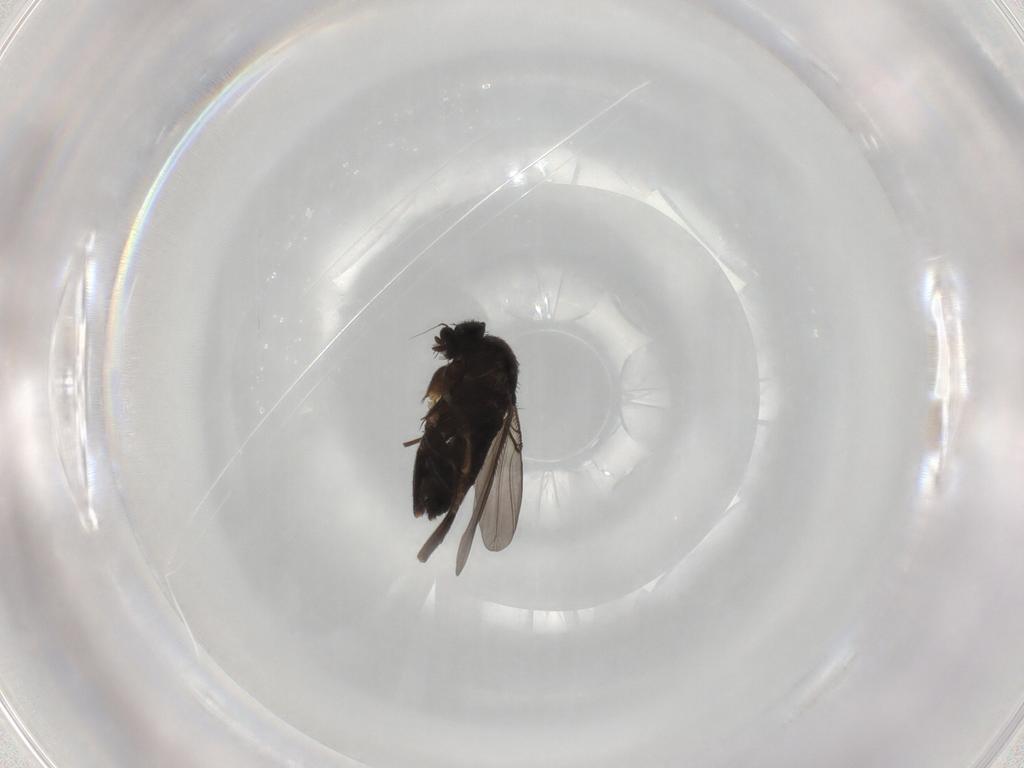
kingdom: Animalia
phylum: Arthropoda
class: Insecta
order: Diptera
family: Phoridae
